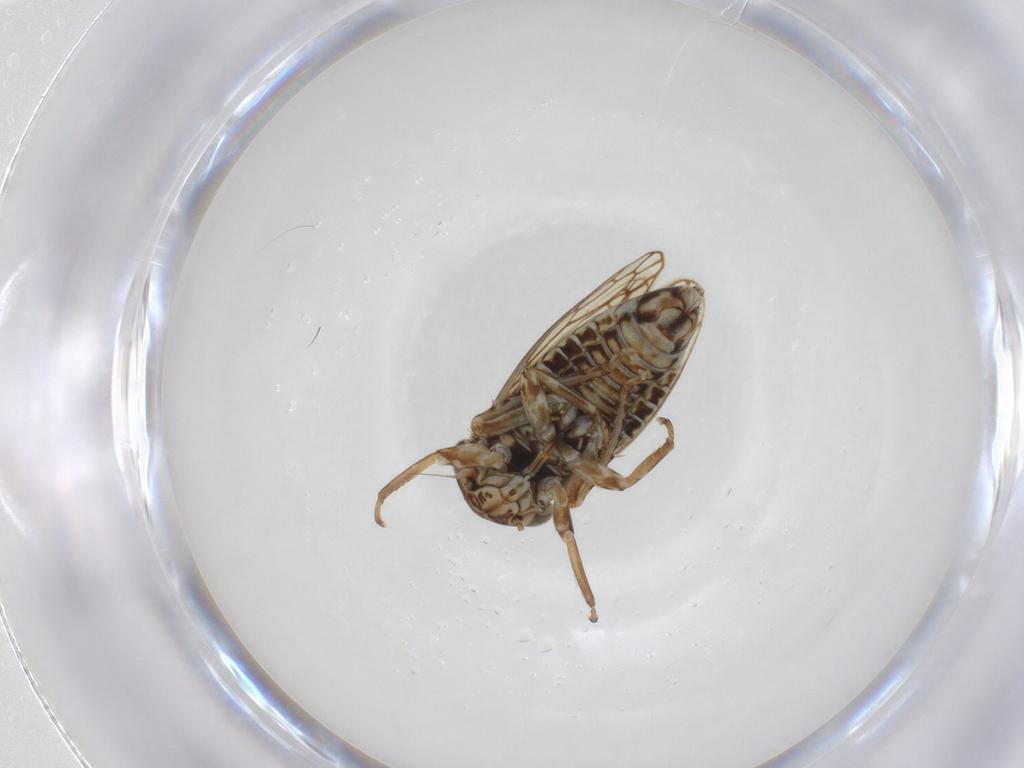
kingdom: Animalia
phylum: Arthropoda
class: Insecta
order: Hemiptera
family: Cicadellidae
